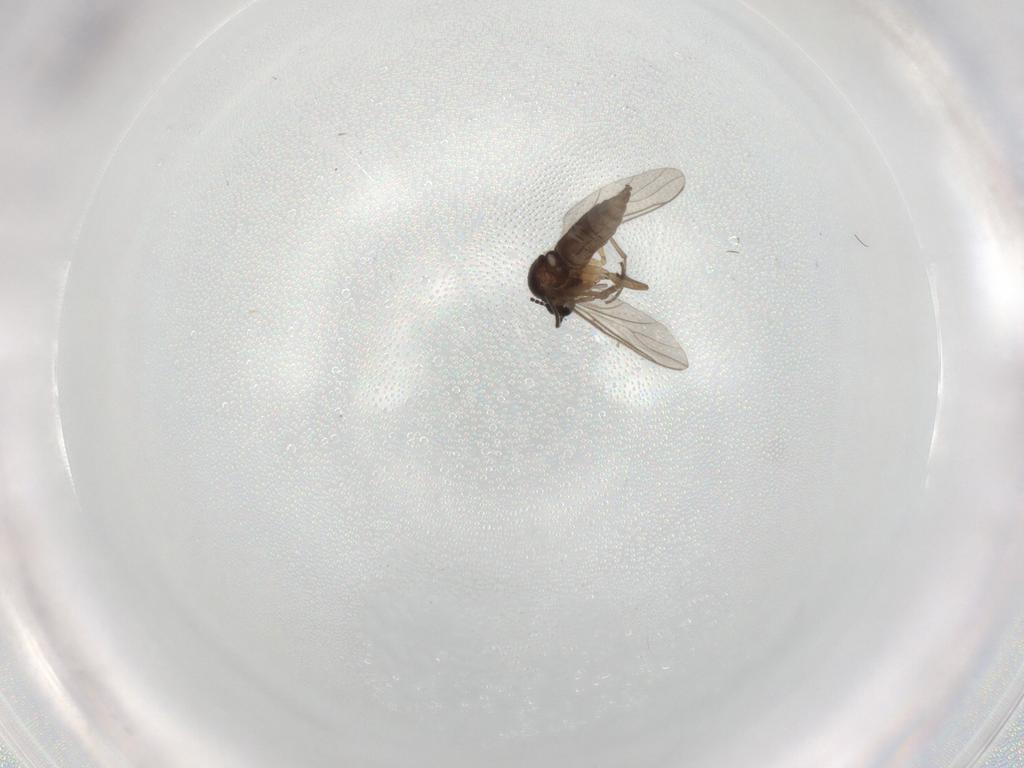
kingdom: Animalia
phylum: Arthropoda
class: Insecta
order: Diptera
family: Sciaridae
